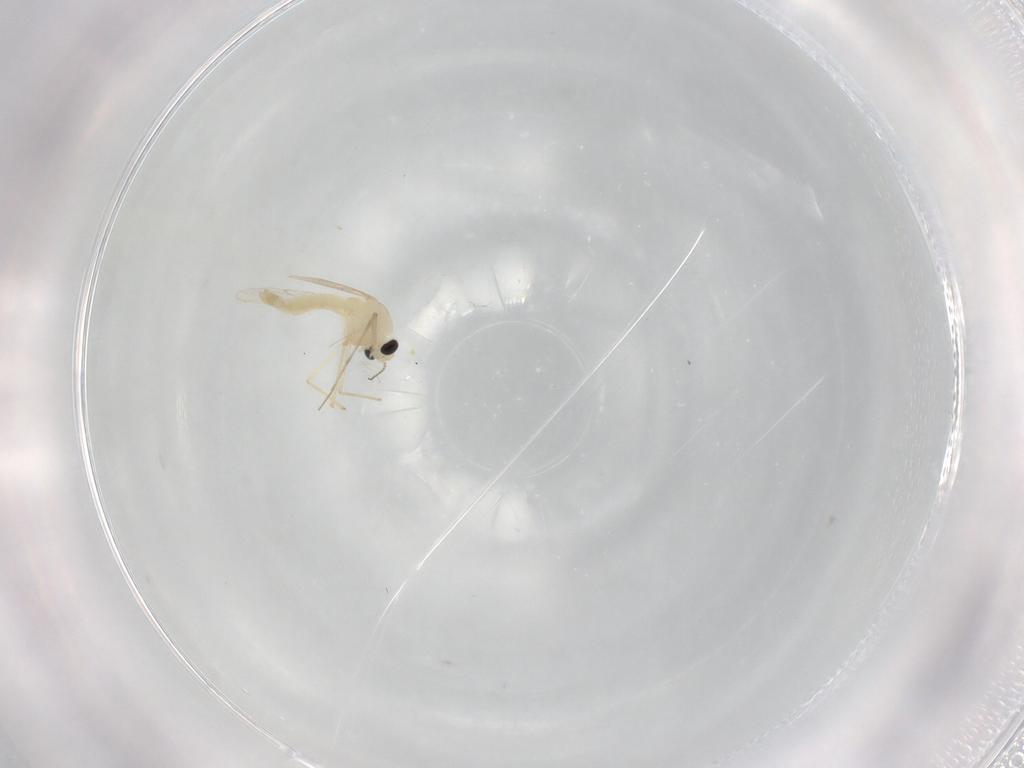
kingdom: Animalia
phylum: Arthropoda
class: Insecta
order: Diptera
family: Chironomidae
